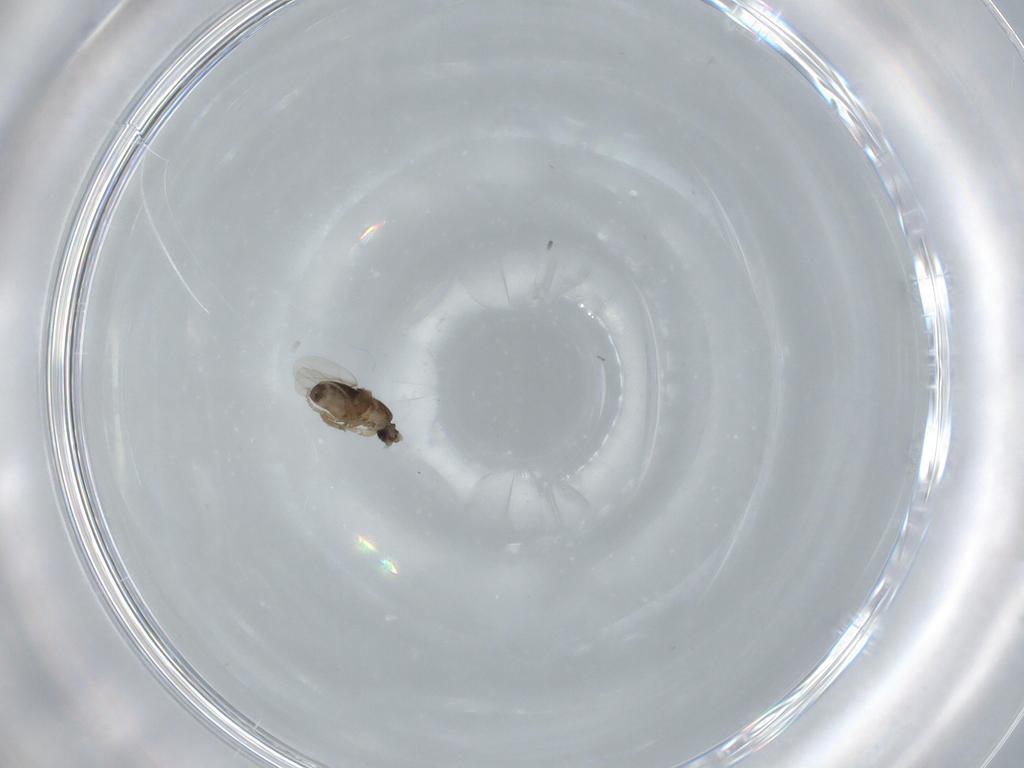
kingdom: Animalia
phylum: Arthropoda
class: Insecta
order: Diptera
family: Phoridae
